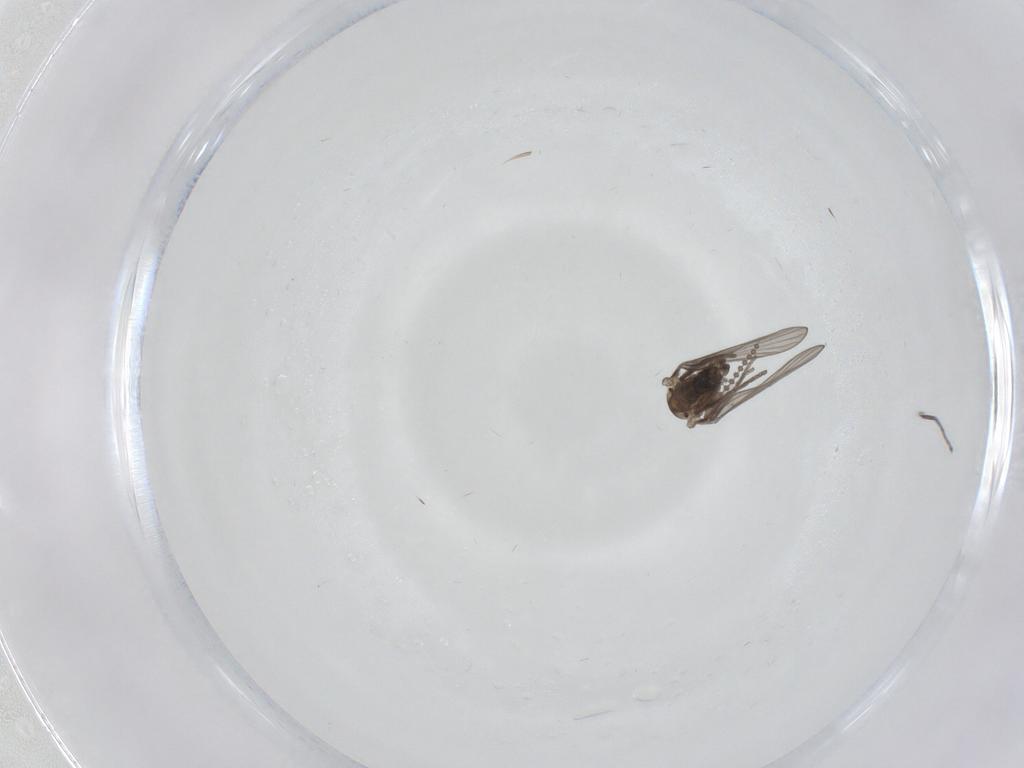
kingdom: Animalia
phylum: Arthropoda
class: Insecta
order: Diptera
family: Psychodidae
